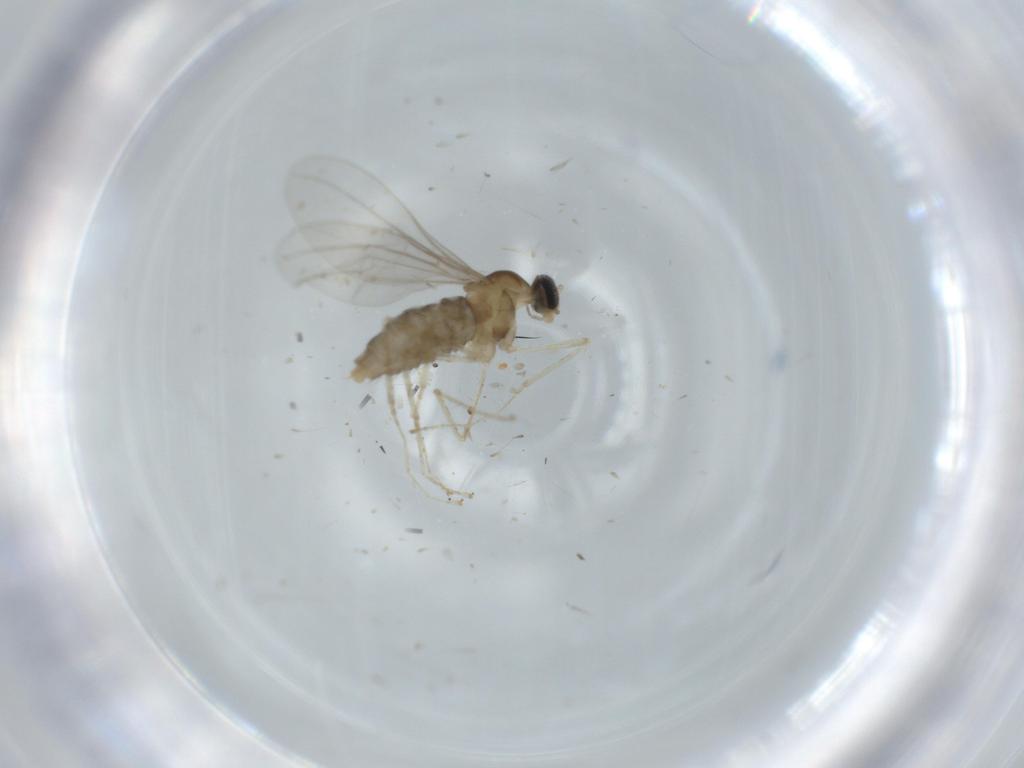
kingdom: Animalia
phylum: Arthropoda
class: Insecta
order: Diptera
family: Cecidomyiidae
